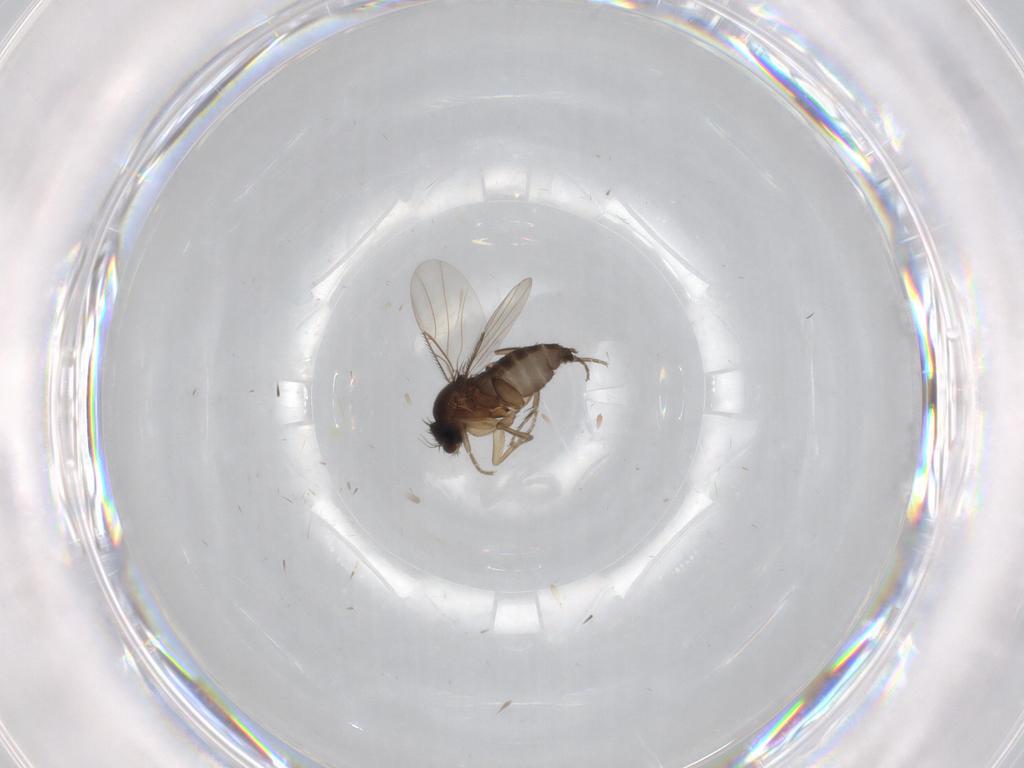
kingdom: Animalia
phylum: Arthropoda
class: Insecta
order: Diptera
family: Phoridae
